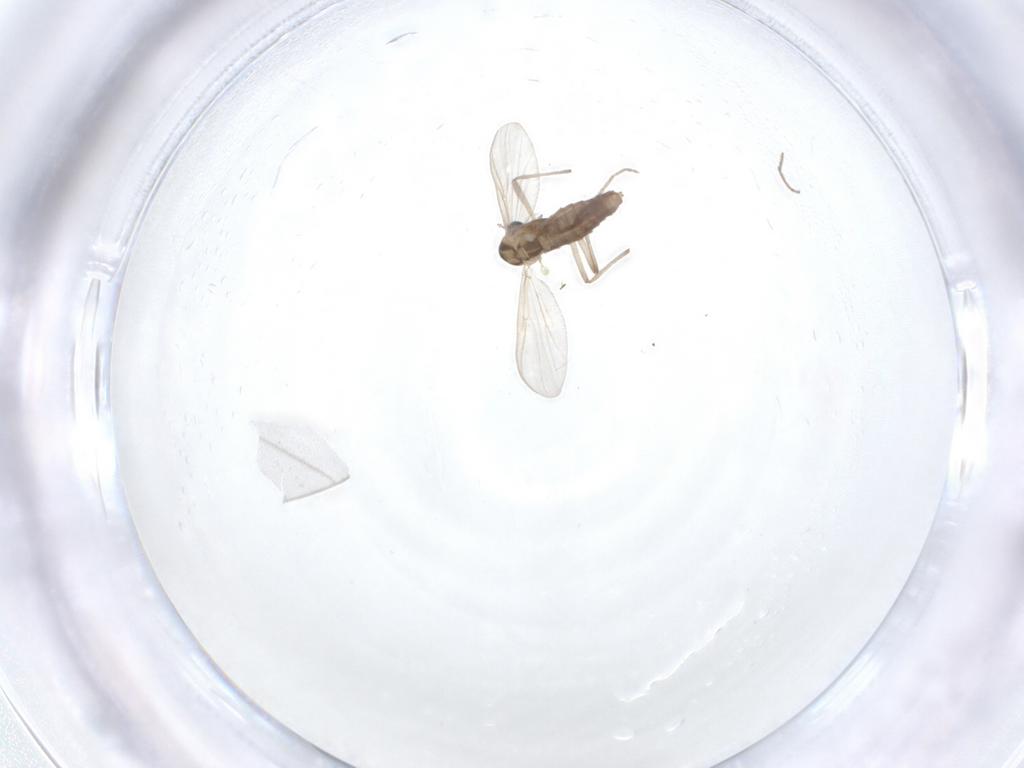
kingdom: Animalia
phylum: Arthropoda
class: Insecta
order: Diptera
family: Chironomidae
